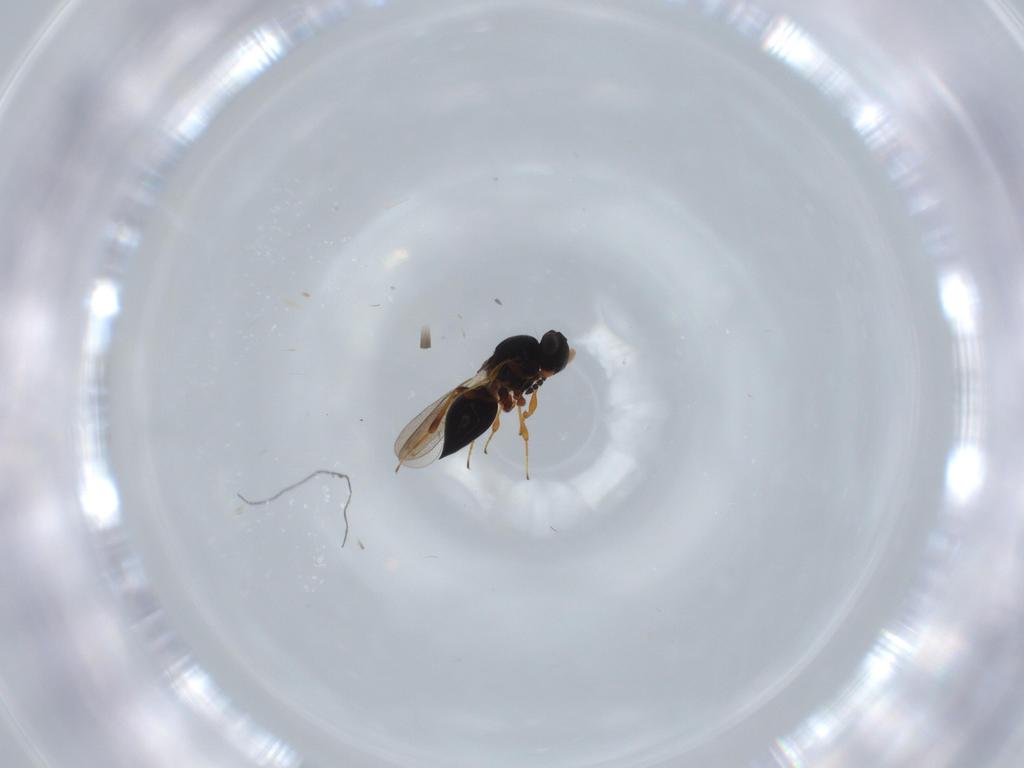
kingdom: Animalia
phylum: Arthropoda
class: Insecta
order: Hymenoptera
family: Platygastridae
